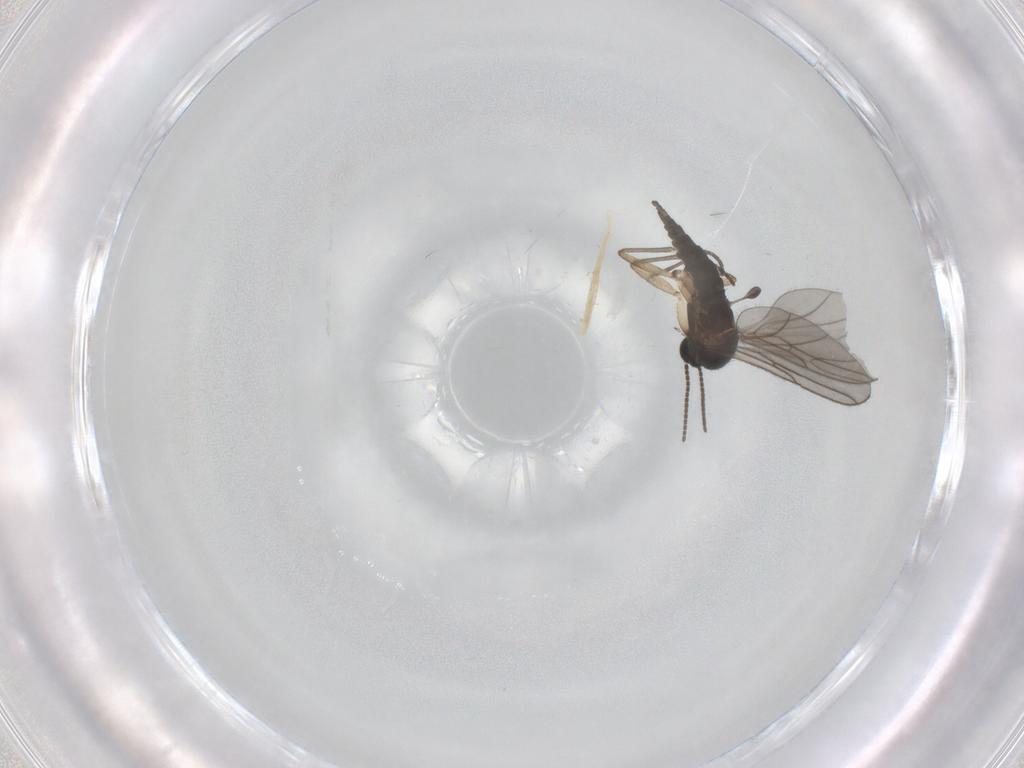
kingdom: Animalia
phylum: Arthropoda
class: Insecta
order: Diptera
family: Sciaridae
